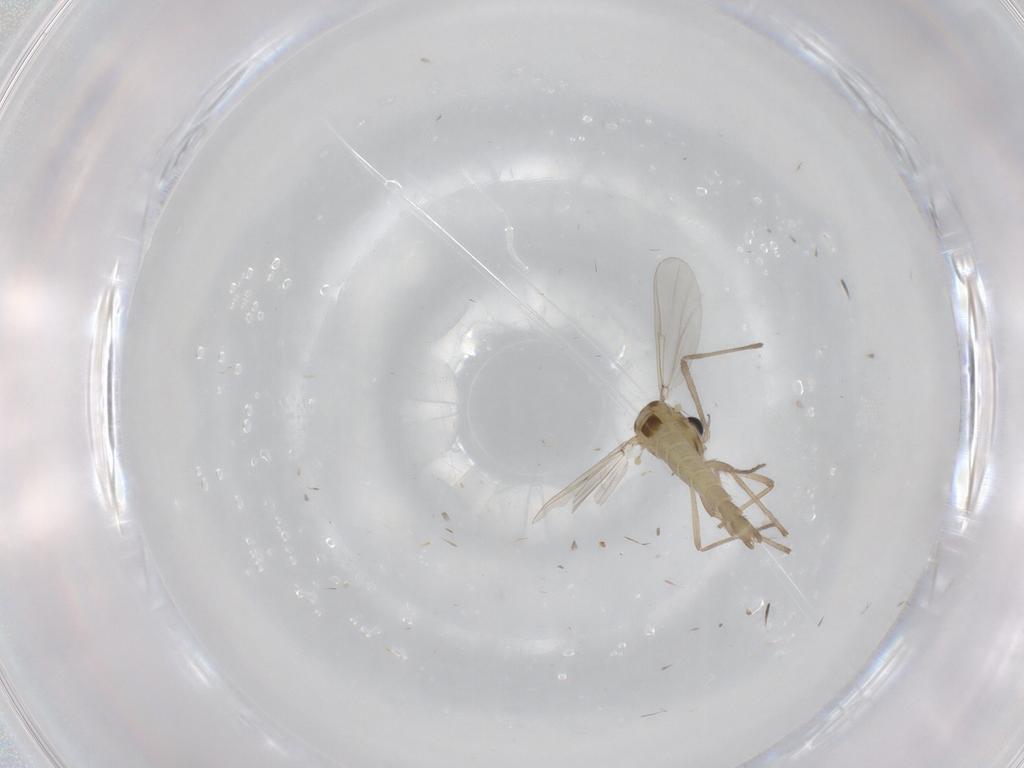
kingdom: Animalia
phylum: Arthropoda
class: Insecta
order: Diptera
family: Chironomidae
